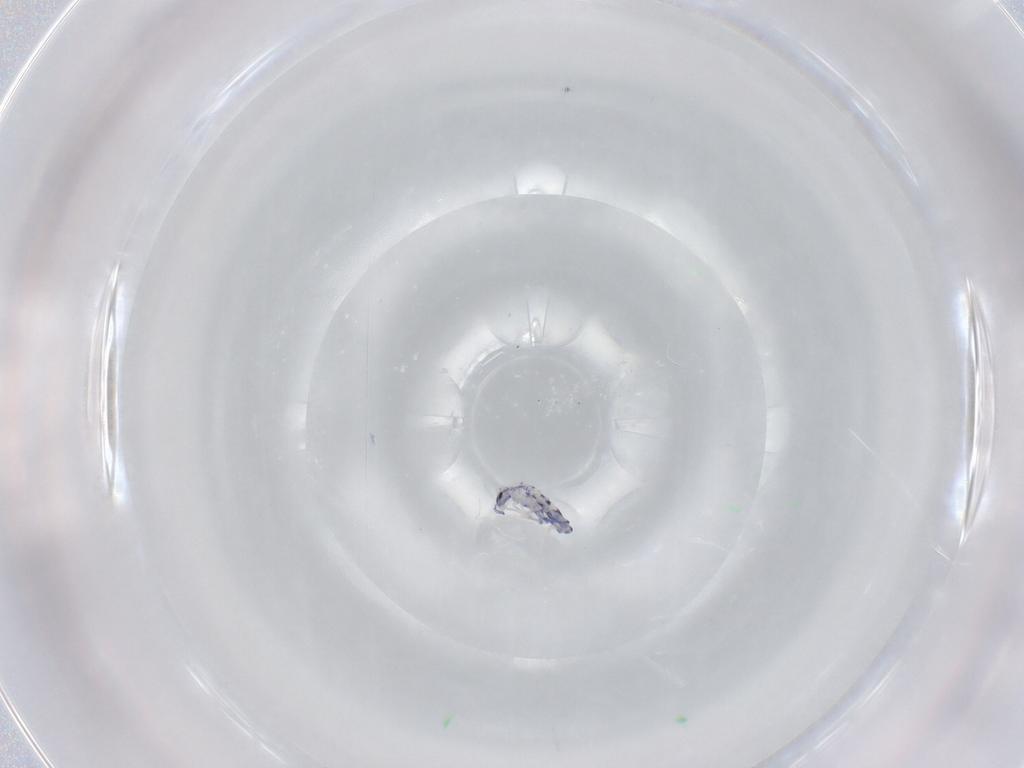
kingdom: Animalia
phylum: Arthropoda
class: Collembola
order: Entomobryomorpha
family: Entomobryidae
